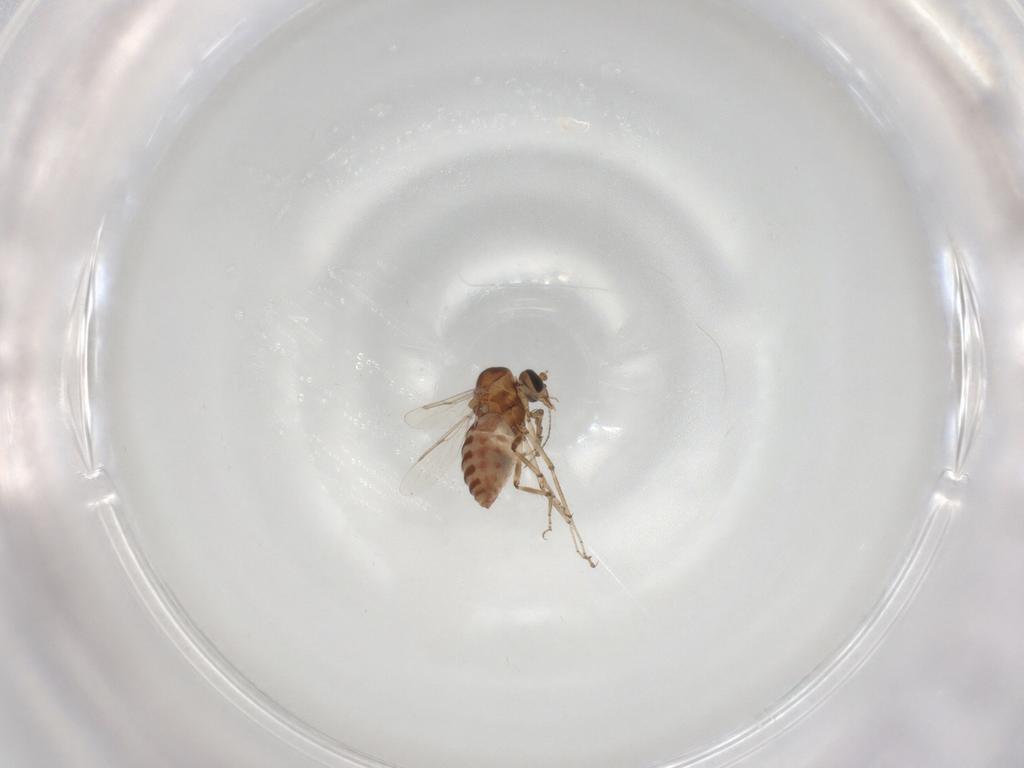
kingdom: Animalia
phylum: Arthropoda
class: Insecta
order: Diptera
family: Ceratopogonidae
